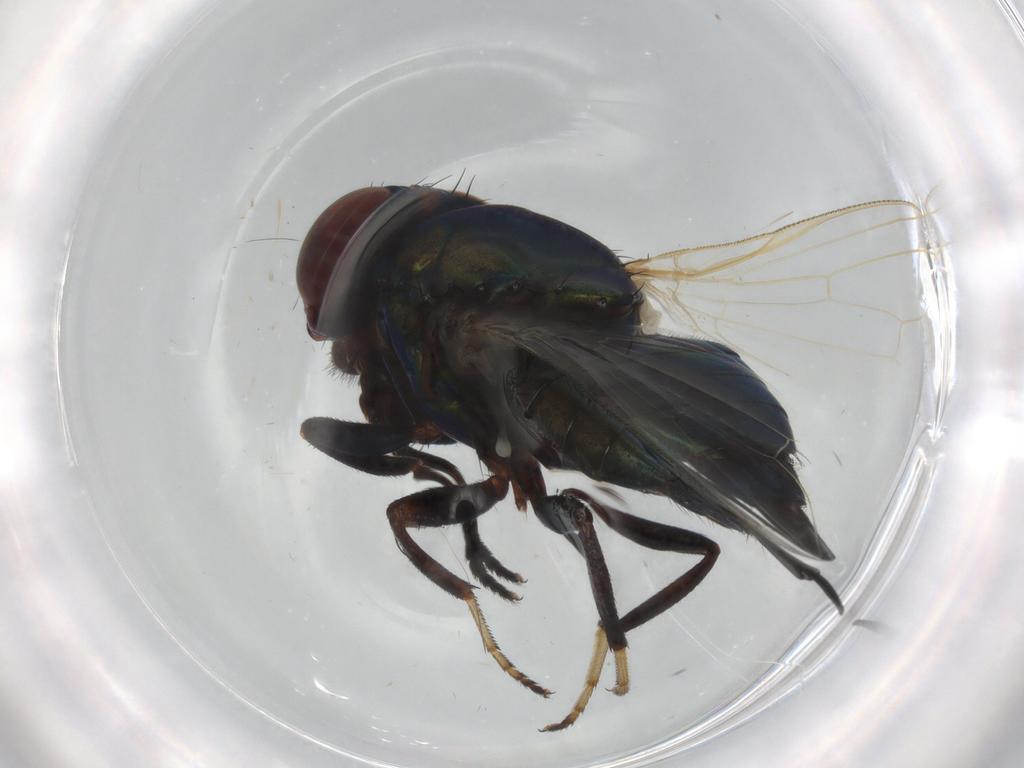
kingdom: Animalia
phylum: Arthropoda
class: Insecta
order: Diptera
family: Ulidiidae
